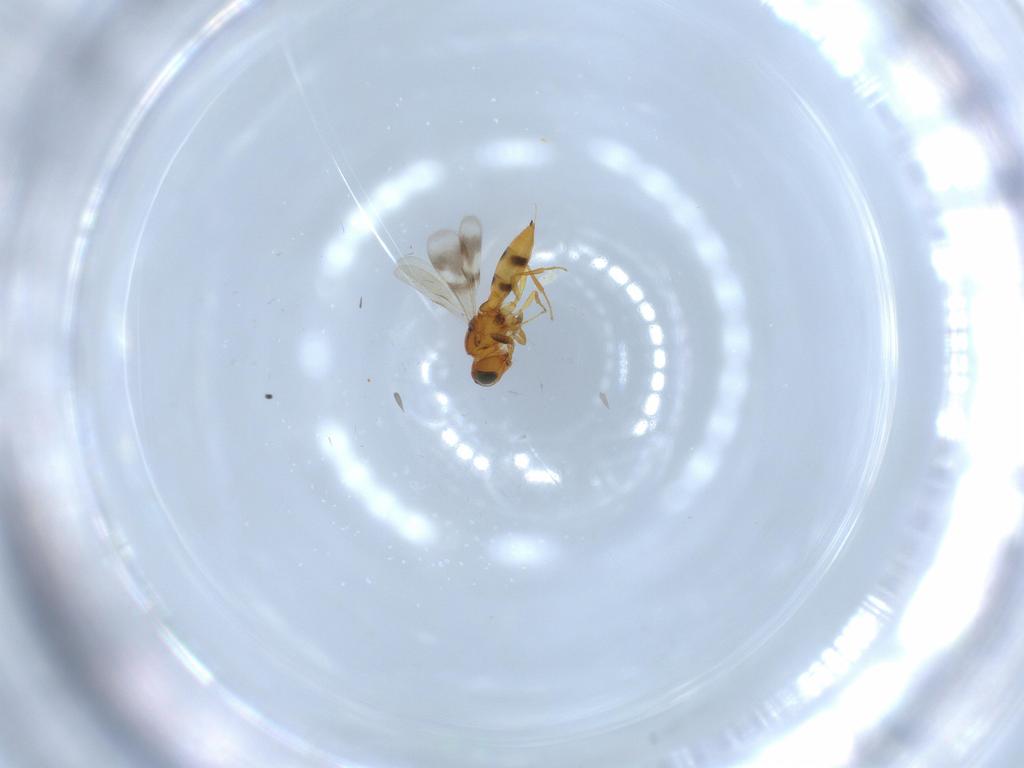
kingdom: Animalia
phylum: Arthropoda
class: Insecta
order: Hymenoptera
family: Scelionidae
